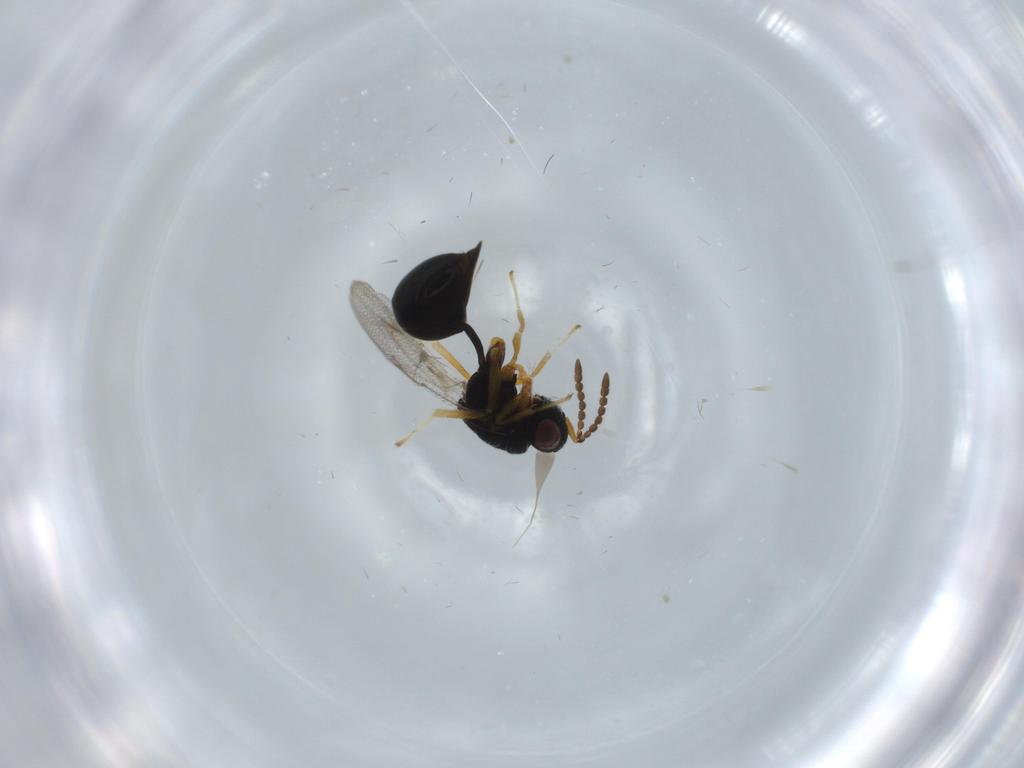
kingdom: Animalia
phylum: Arthropoda
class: Insecta
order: Hymenoptera
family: Eurytomidae
